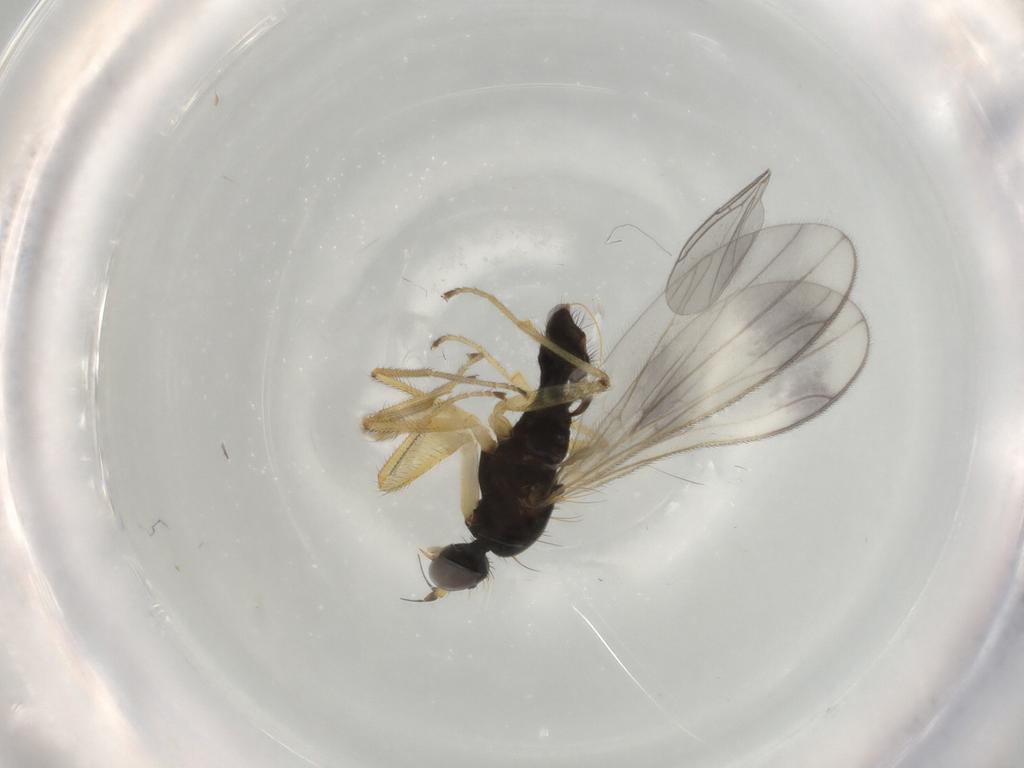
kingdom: Animalia
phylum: Arthropoda
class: Insecta
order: Diptera
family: Empididae
